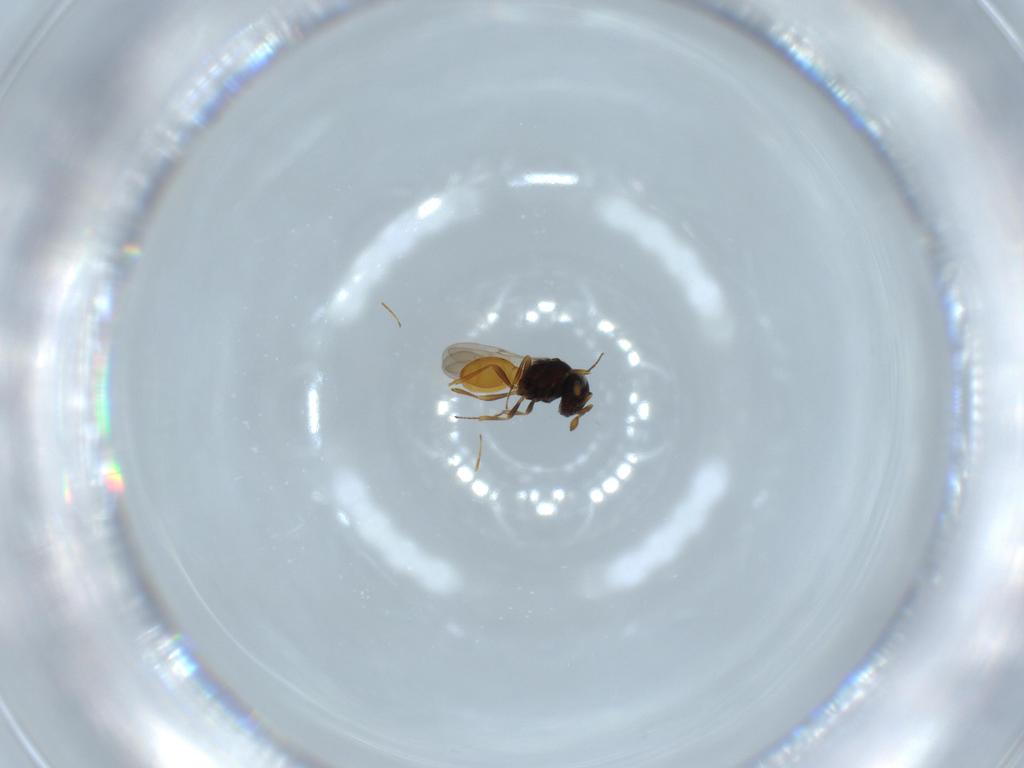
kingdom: Animalia
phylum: Arthropoda
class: Insecta
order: Hymenoptera
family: Scelionidae
